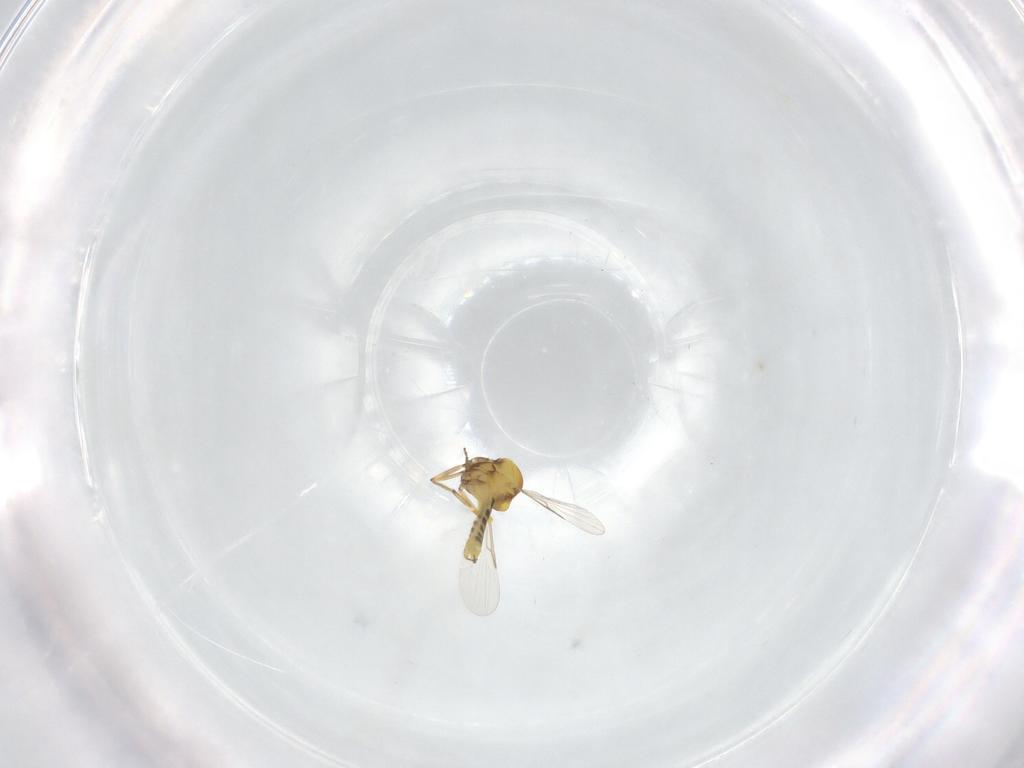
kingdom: Animalia
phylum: Arthropoda
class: Insecta
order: Diptera
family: Ceratopogonidae
